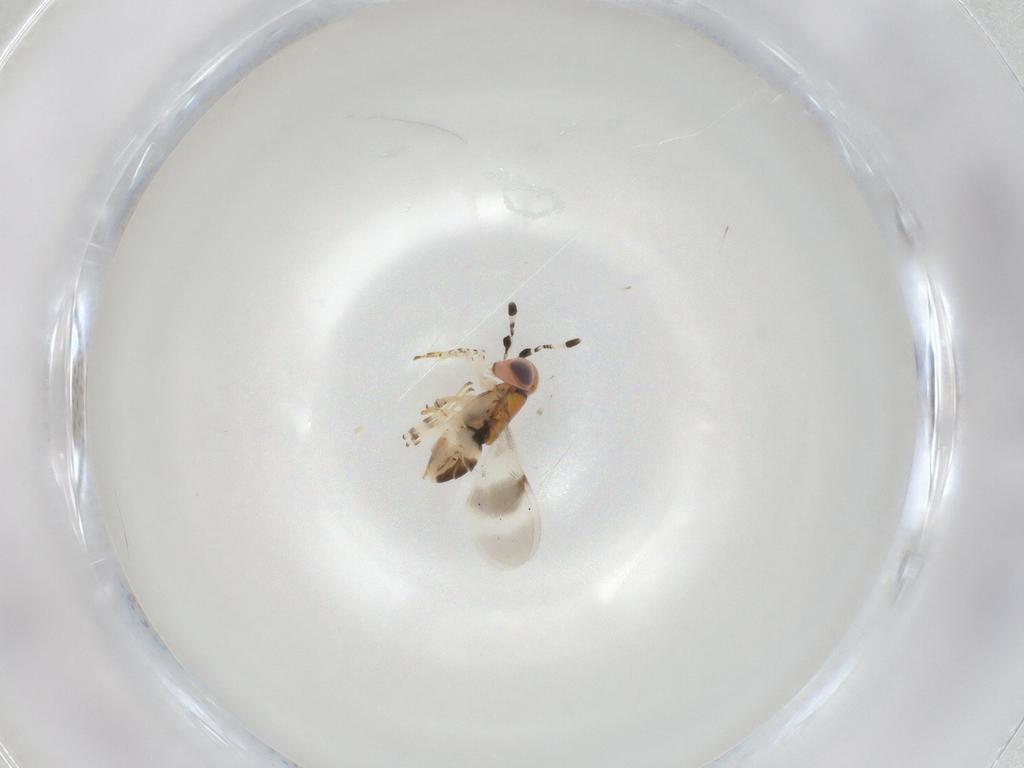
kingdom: Animalia
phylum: Arthropoda
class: Insecta
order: Hymenoptera
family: Encyrtidae
